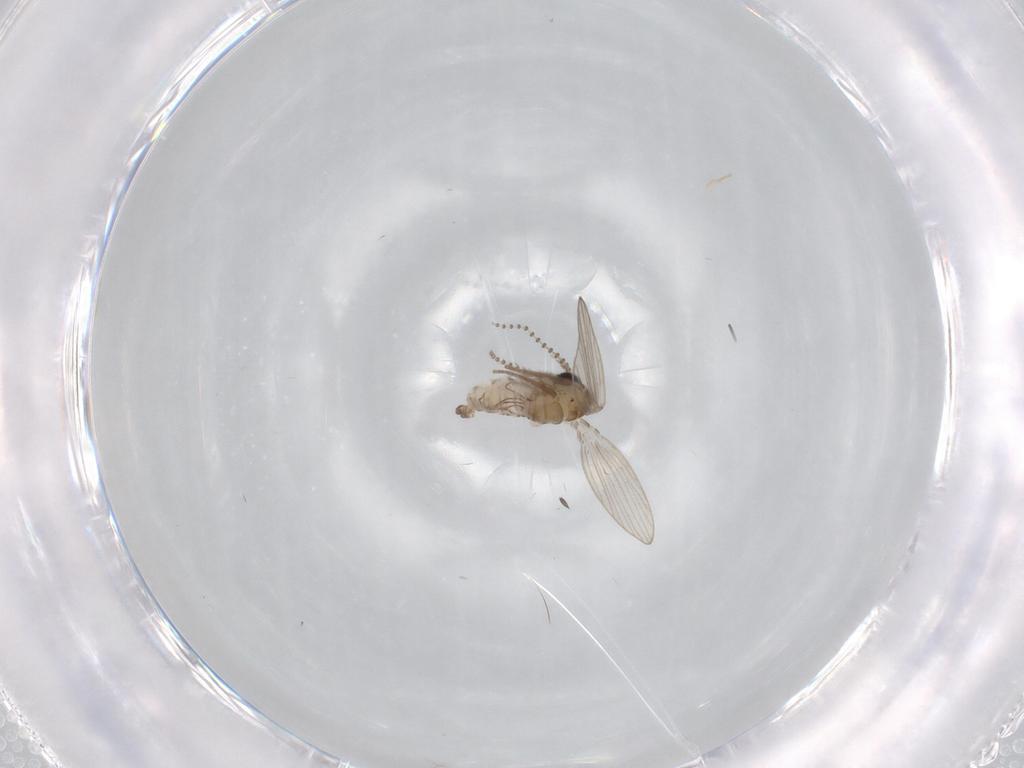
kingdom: Animalia
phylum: Arthropoda
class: Insecta
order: Diptera
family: Psychodidae
